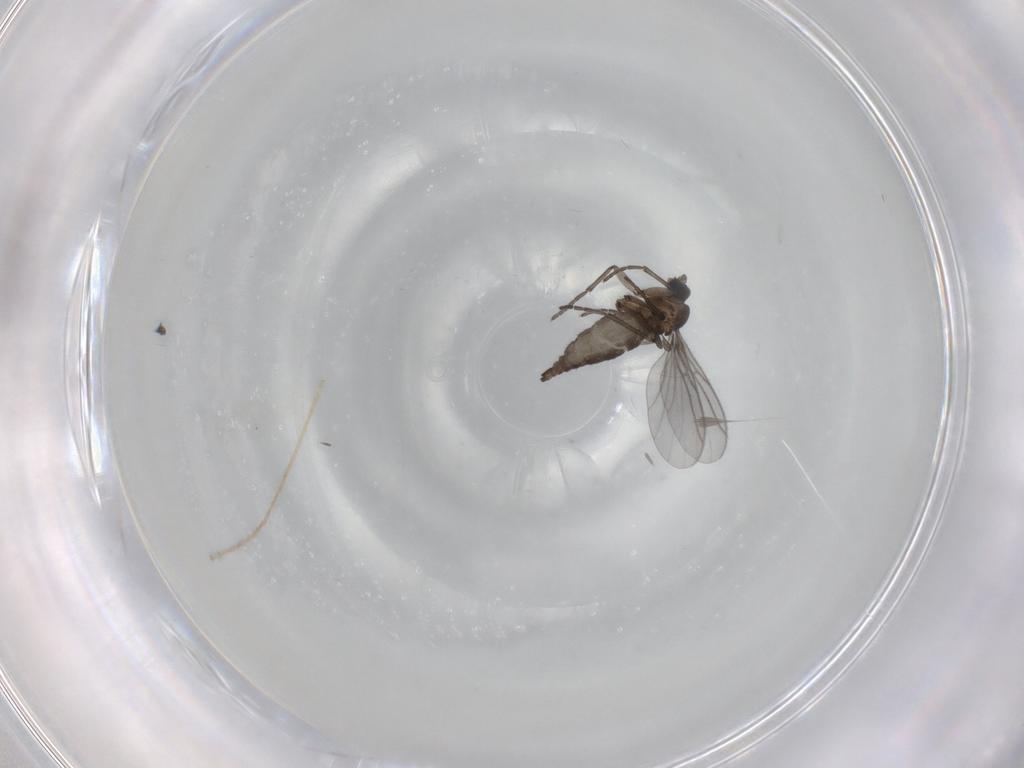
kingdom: Animalia
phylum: Arthropoda
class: Insecta
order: Diptera
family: Sciaridae
